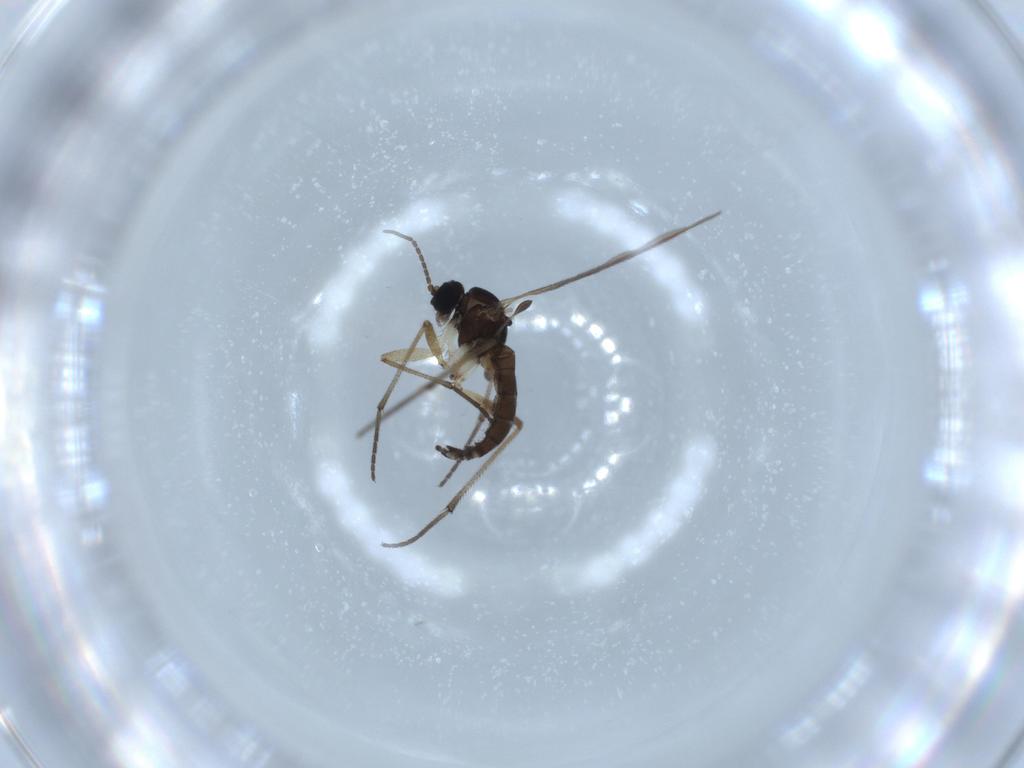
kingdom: Animalia
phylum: Arthropoda
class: Insecta
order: Diptera
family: Sciaridae
